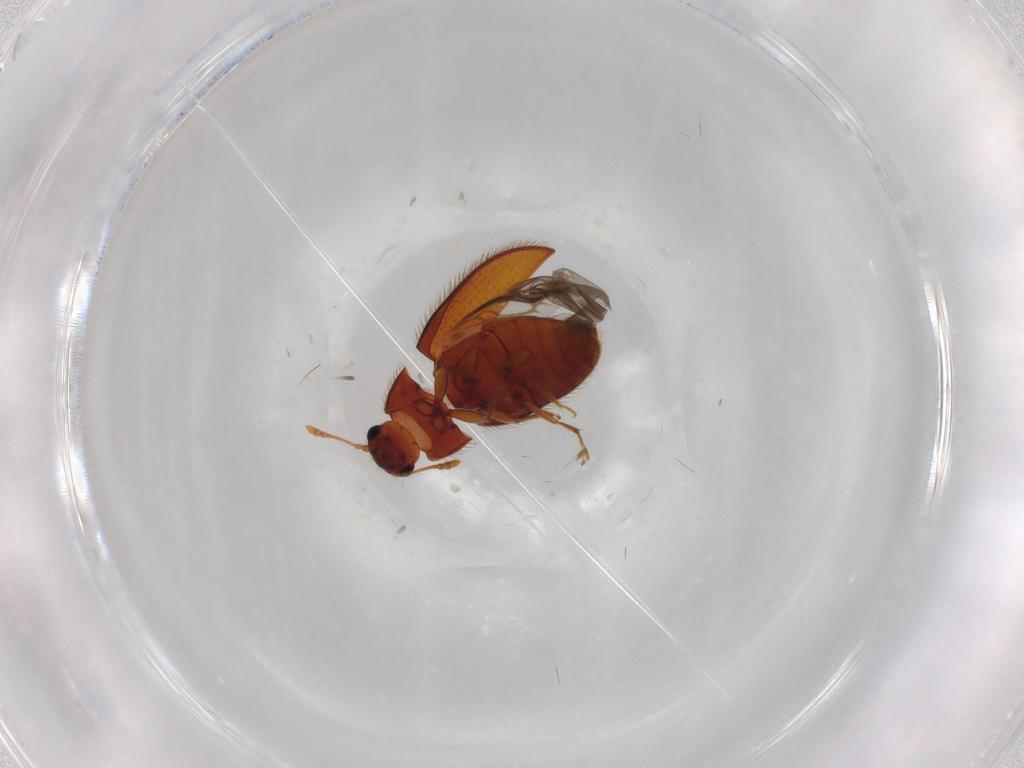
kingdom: Animalia
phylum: Arthropoda
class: Insecta
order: Coleoptera
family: Biphyllidae
